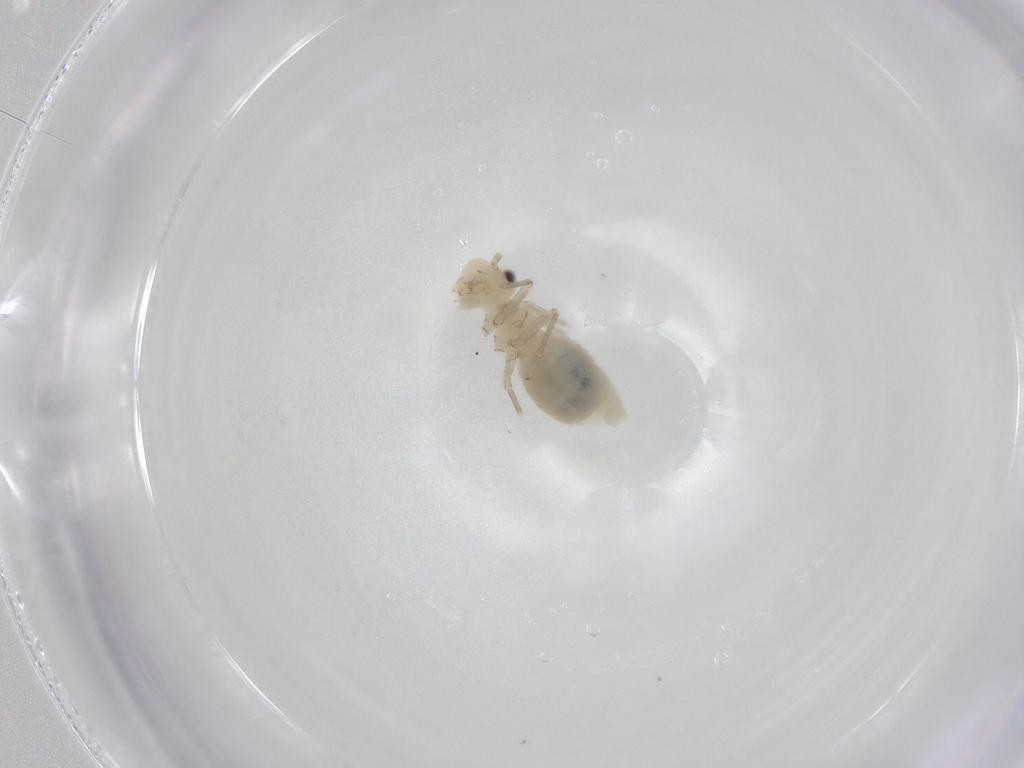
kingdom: Animalia
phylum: Arthropoda
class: Insecta
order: Psocodea
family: Caeciliusidae
